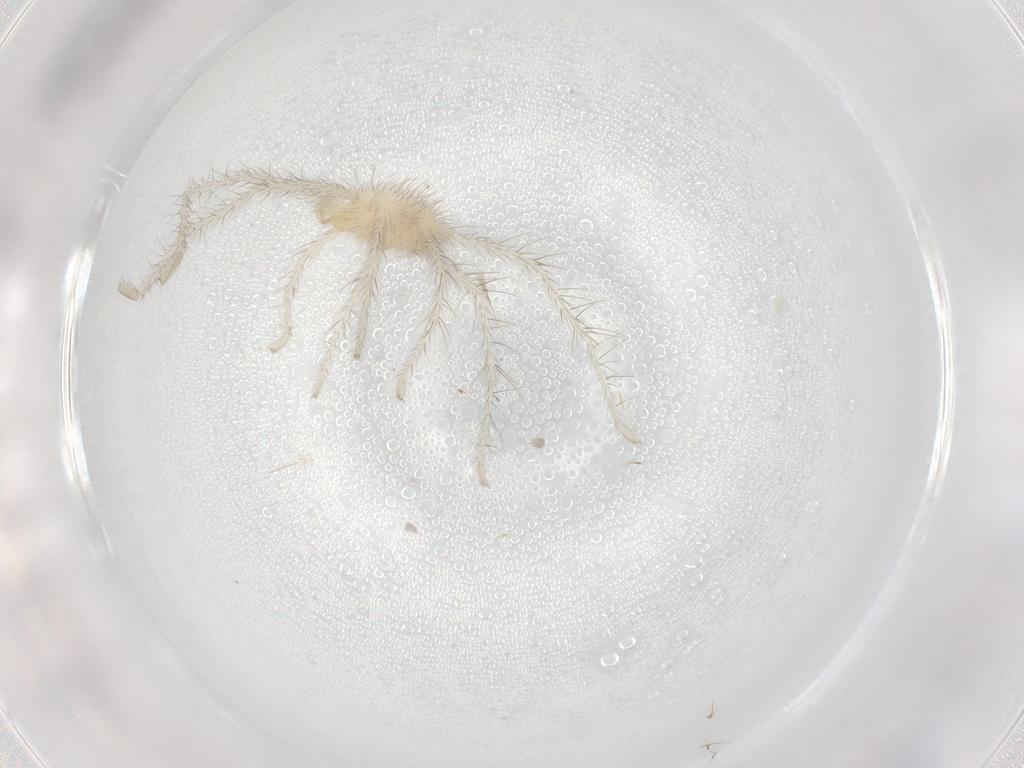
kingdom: Animalia
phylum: Arthropoda
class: Arachnida
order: Trombidiformes
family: Erythraeidae
